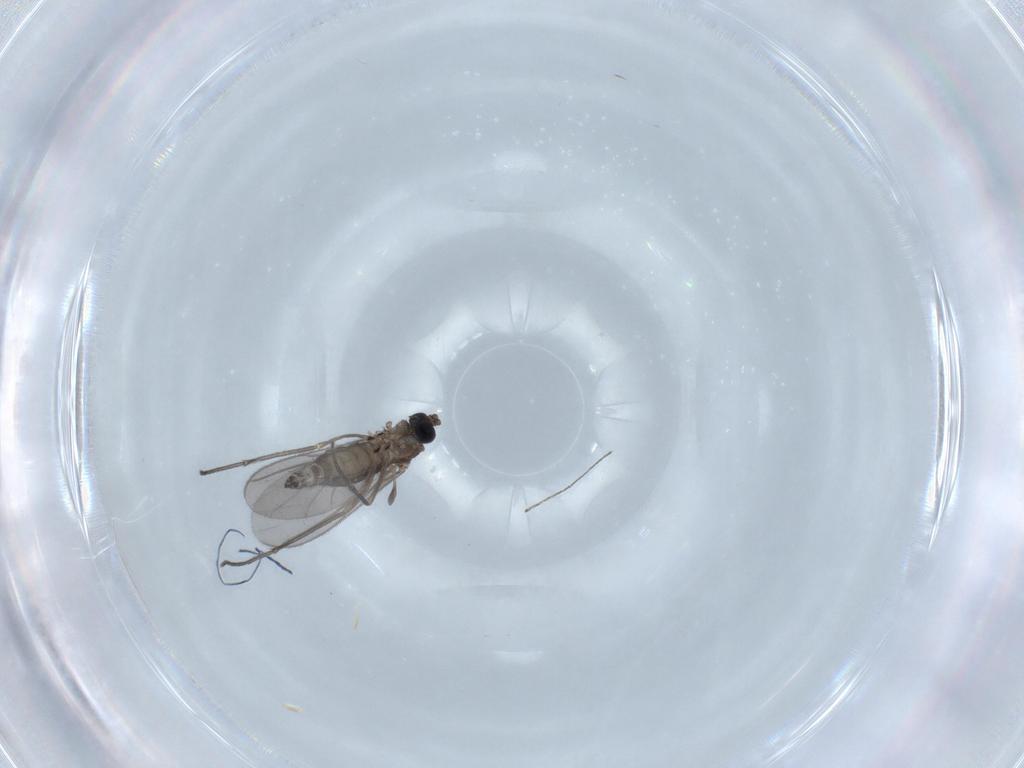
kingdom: Animalia
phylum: Arthropoda
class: Insecta
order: Diptera
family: Sciaridae
